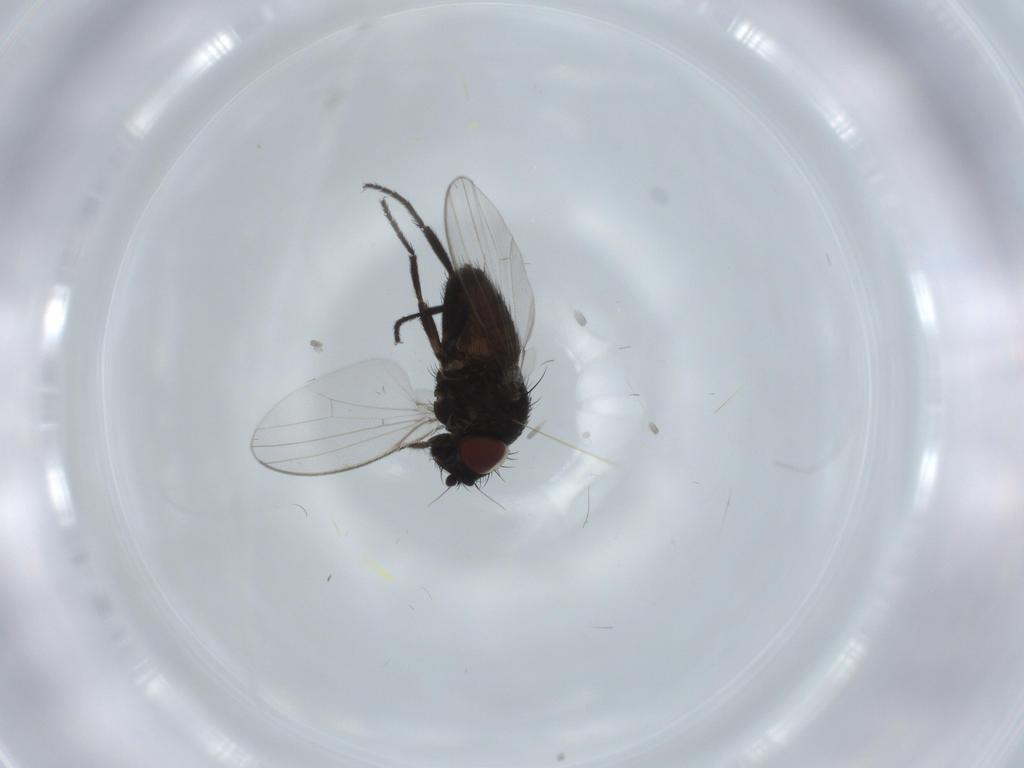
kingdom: Animalia
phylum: Arthropoda
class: Insecta
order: Diptera
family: Milichiidae
